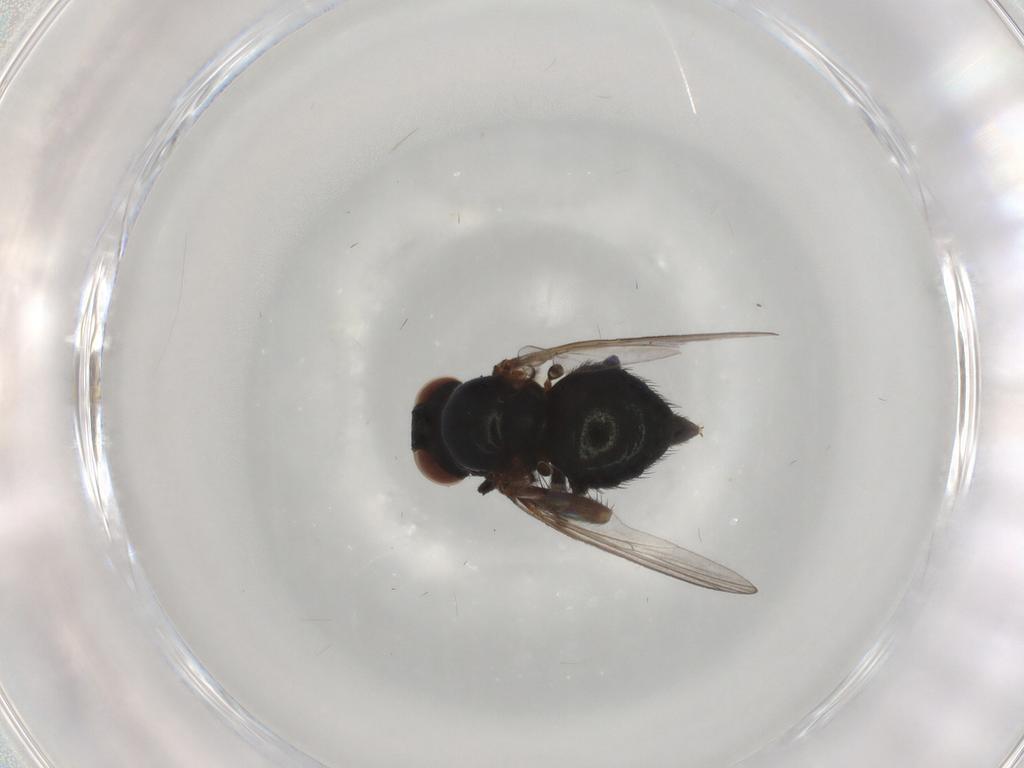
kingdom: Animalia
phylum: Arthropoda
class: Insecta
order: Diptera
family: Agromyzidae
